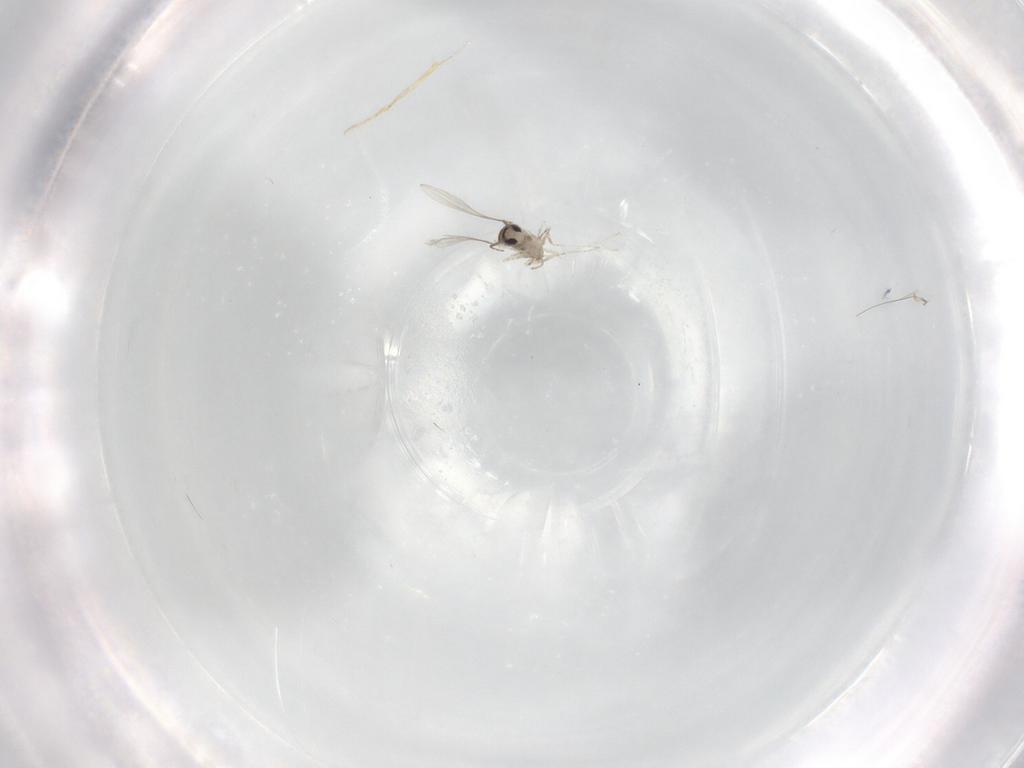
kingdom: Animalia
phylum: Arthropoda
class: Insecta
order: Diptera
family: Cecidomyiidae
